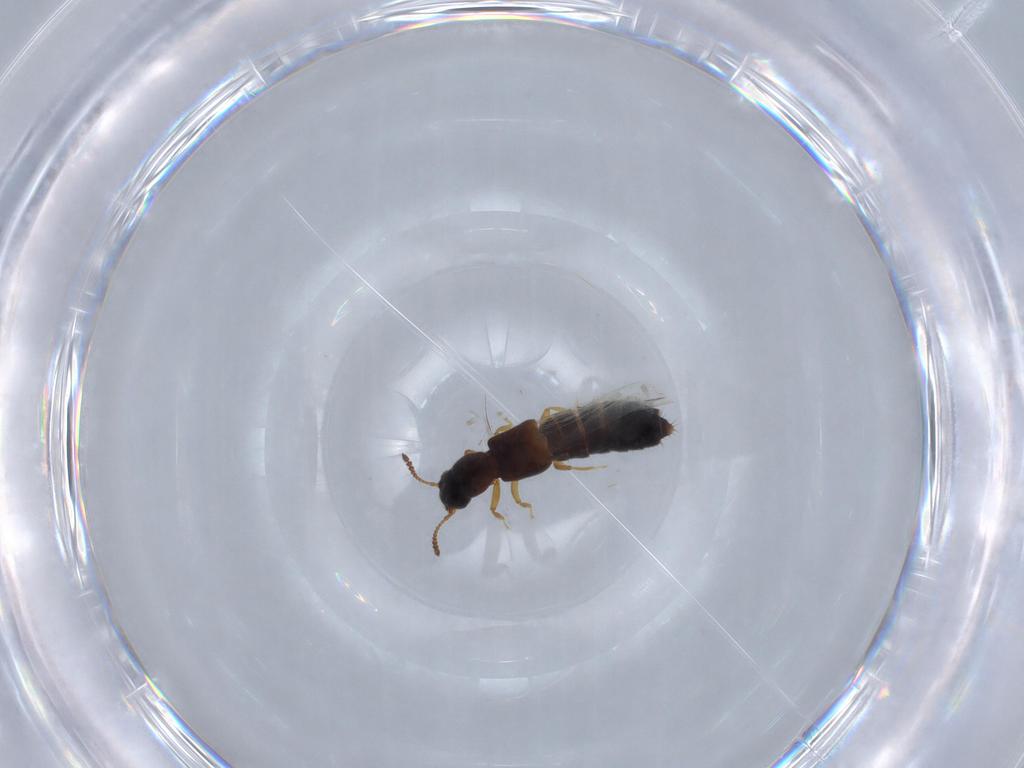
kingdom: Animalia
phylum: Arthropoda
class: Insecta
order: Coleoptera
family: Staphylinidae
